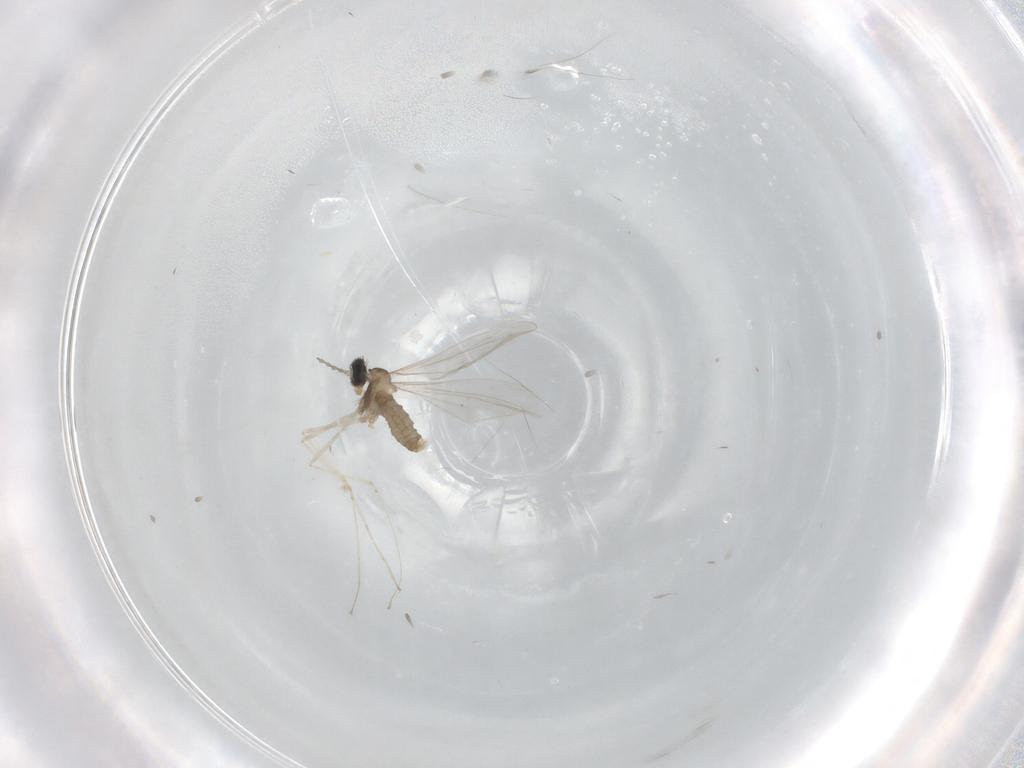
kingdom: Animalia
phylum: Arthropoda
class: Insecta
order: Diptera
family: Cecidomyiidae
